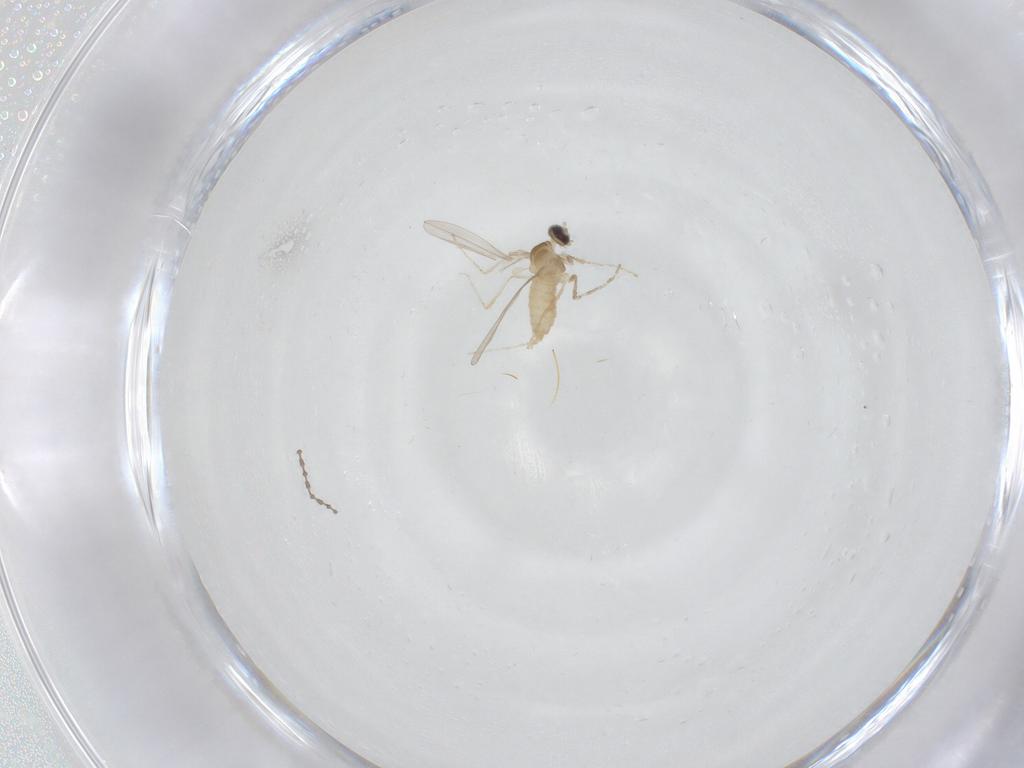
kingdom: Animalia
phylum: Arthropoda
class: Insecta
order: Diptera
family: Cecidomyiidae
